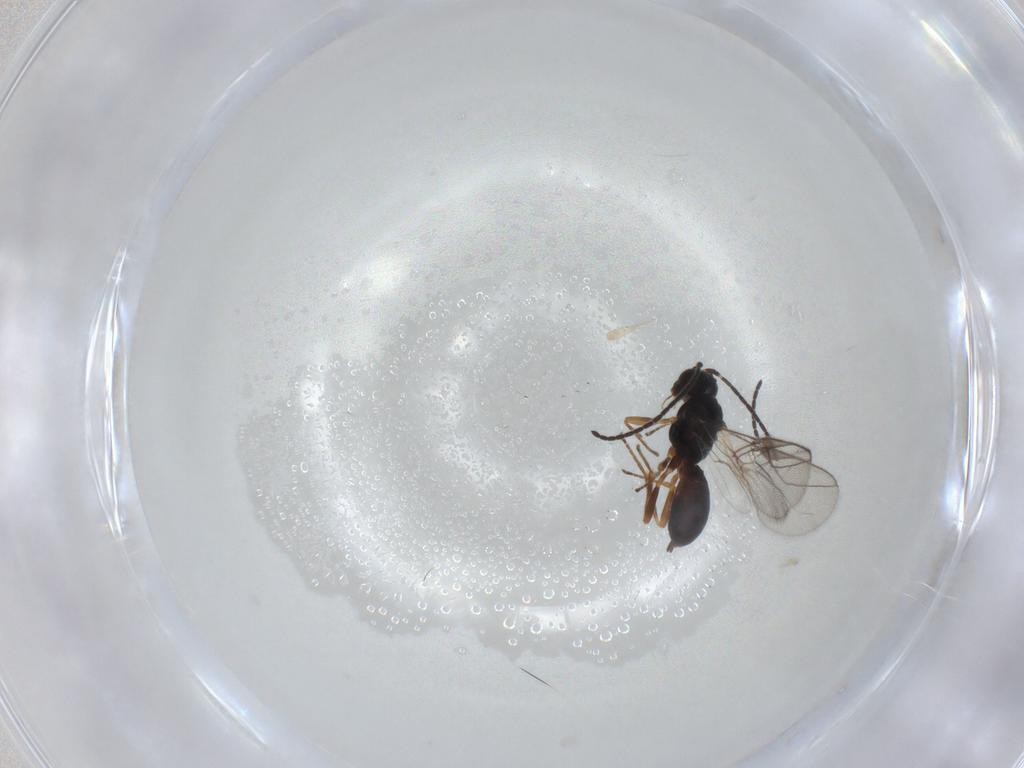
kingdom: Animalia
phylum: Arthropoda
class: Insecta
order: Hymenoptera
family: Braconidae
